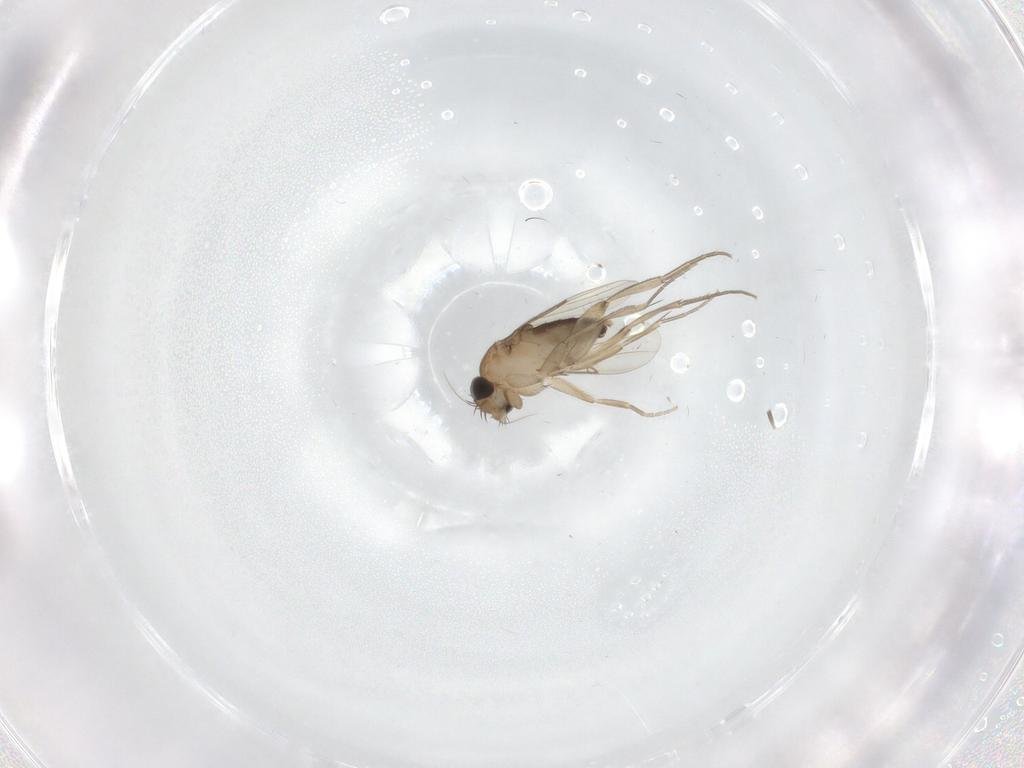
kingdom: Animalia
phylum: Arthropoda
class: Insecta
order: Diptera
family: Phoridae
